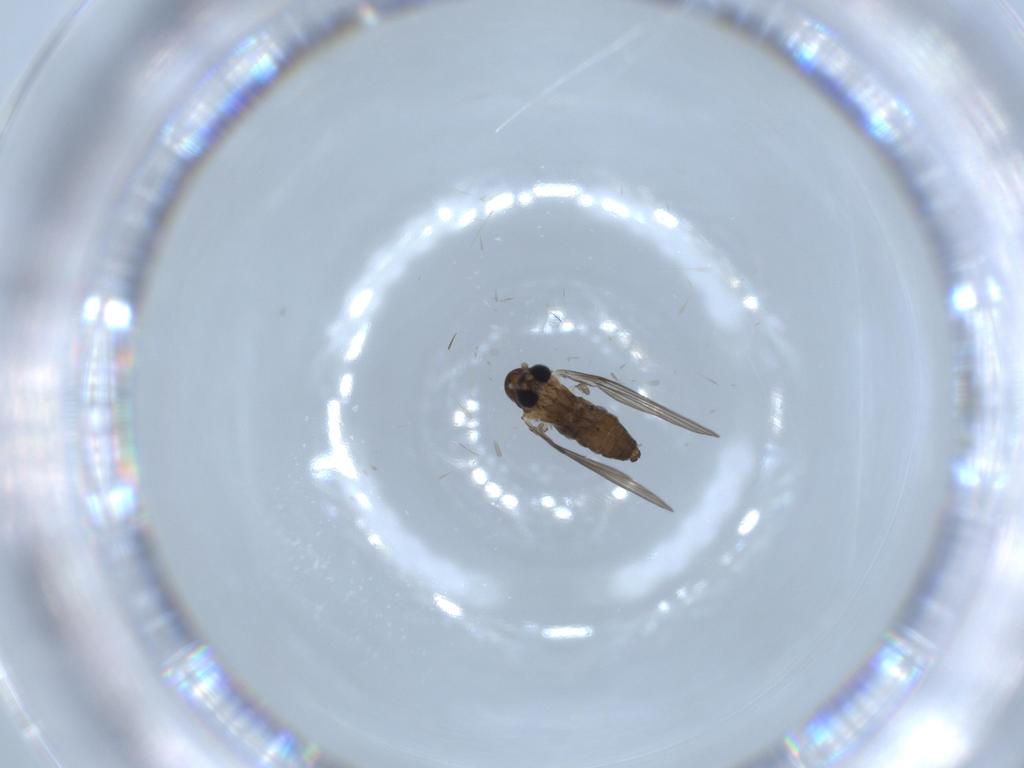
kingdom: Animalia
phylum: Arthropoda
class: Insecta
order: Diptera
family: Psychodidae
